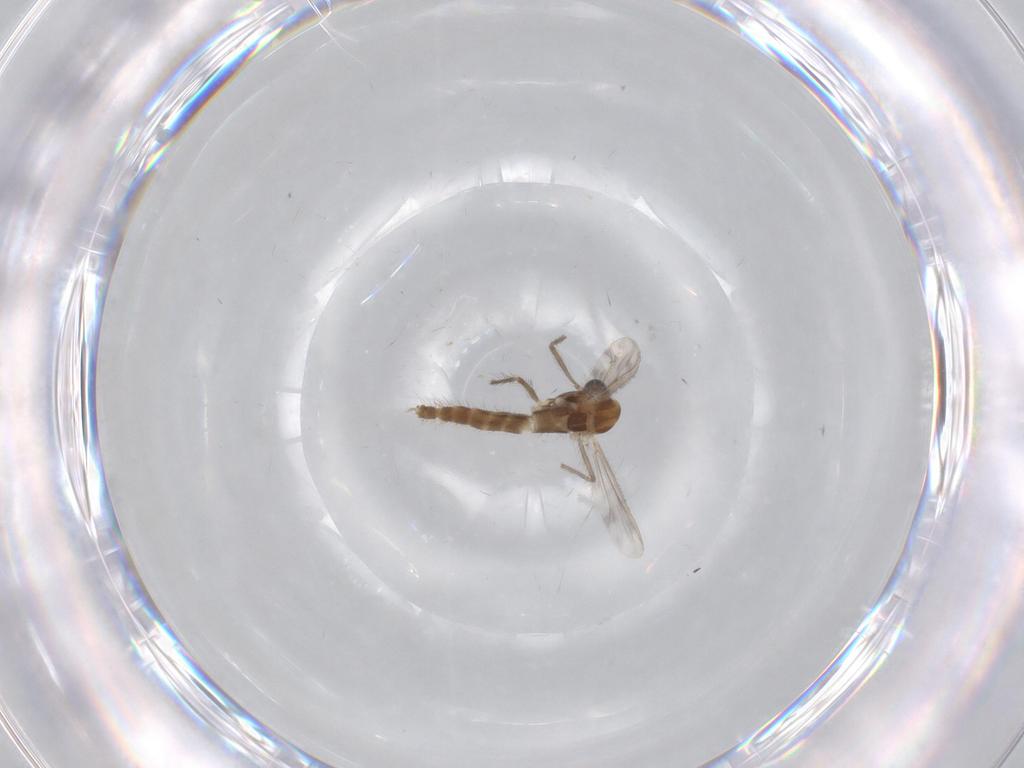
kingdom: Animalia
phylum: Arthropoda
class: Insecta
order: Diptera
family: Chironomidae
